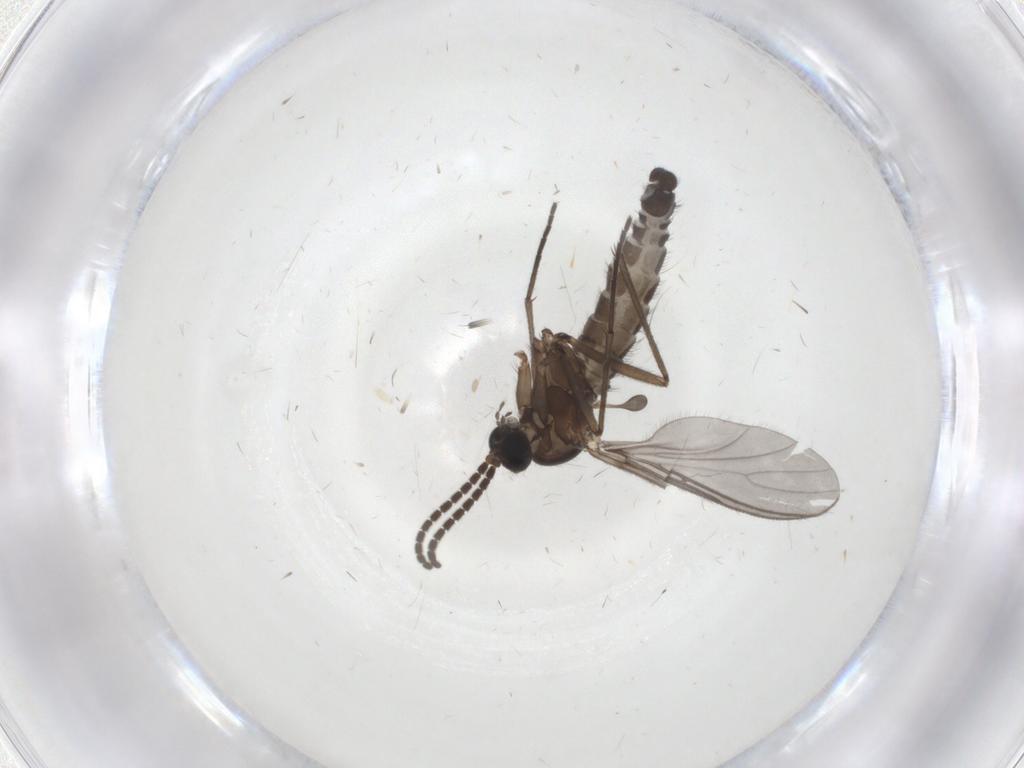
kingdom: Animalia
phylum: Arthropoda
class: Insecta
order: Diptera
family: Sciaridae
